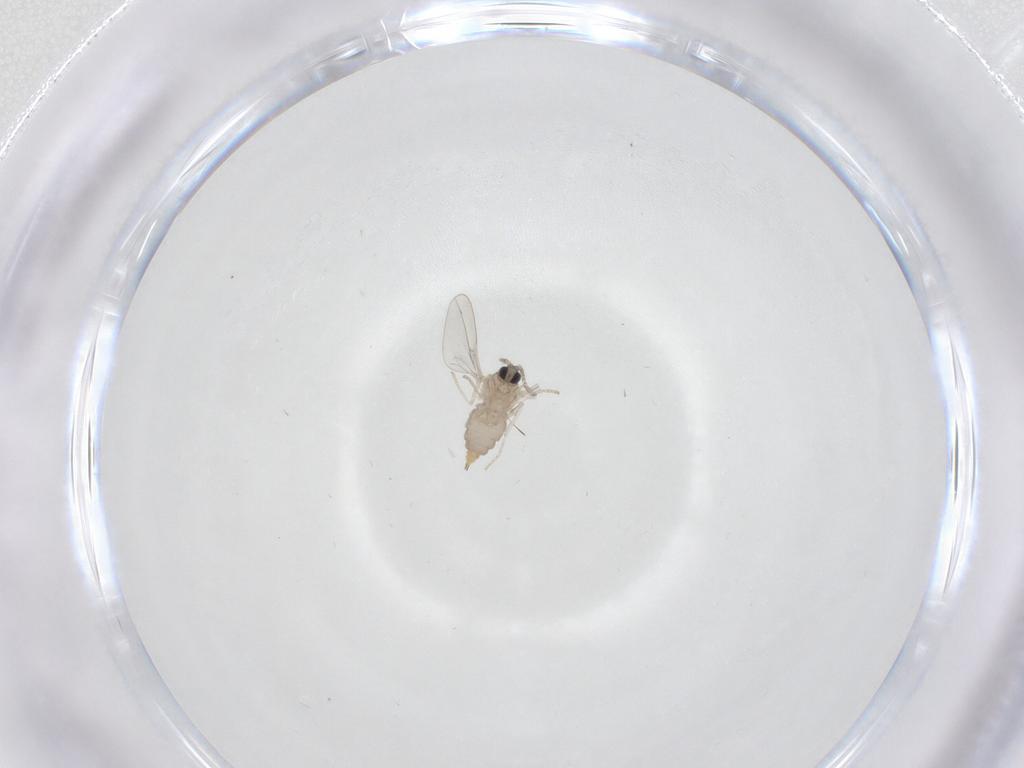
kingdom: Animalia
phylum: Arthropoda
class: Insecta
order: Diptera
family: Cecidomyiidae
